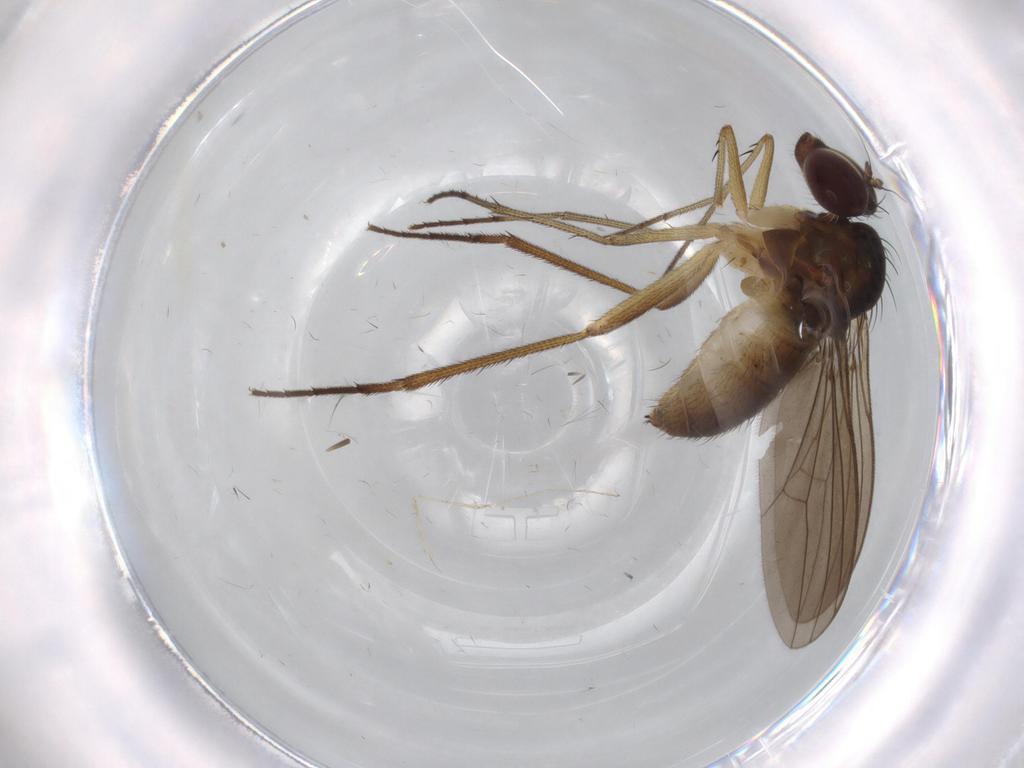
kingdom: Animalia
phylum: Arthropoda
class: Insecta
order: Diptera
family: Dolichopodidae
